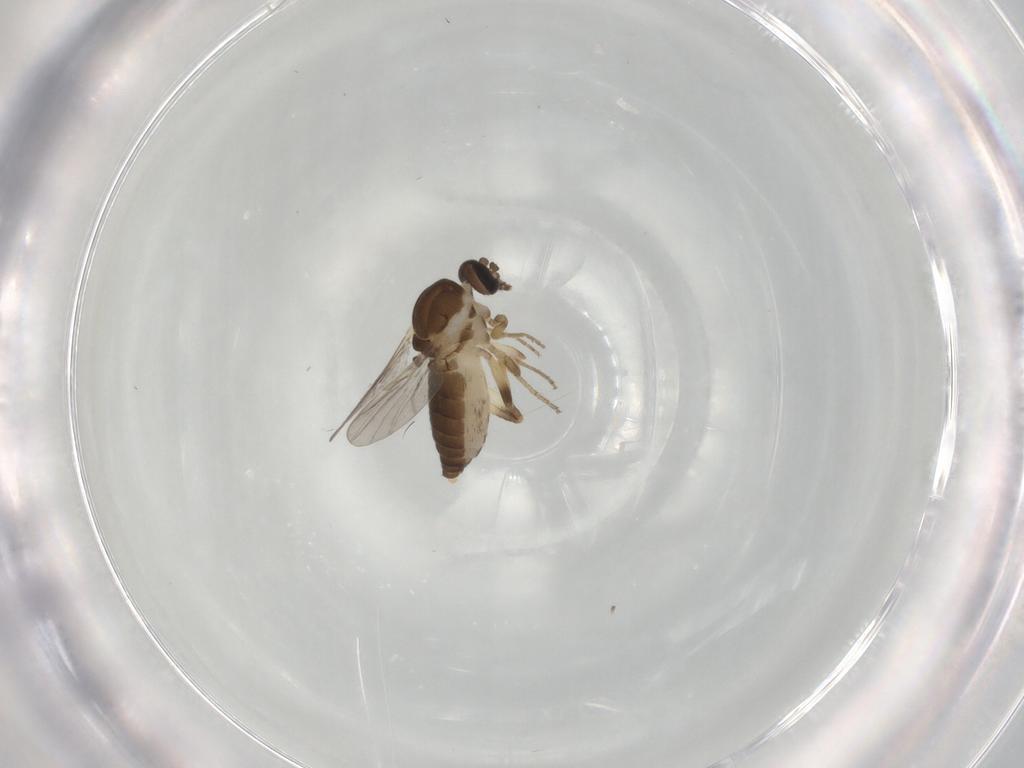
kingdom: Animalia
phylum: Arthropoda
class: Insecta
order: Diptera
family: Ceratopogonidae
